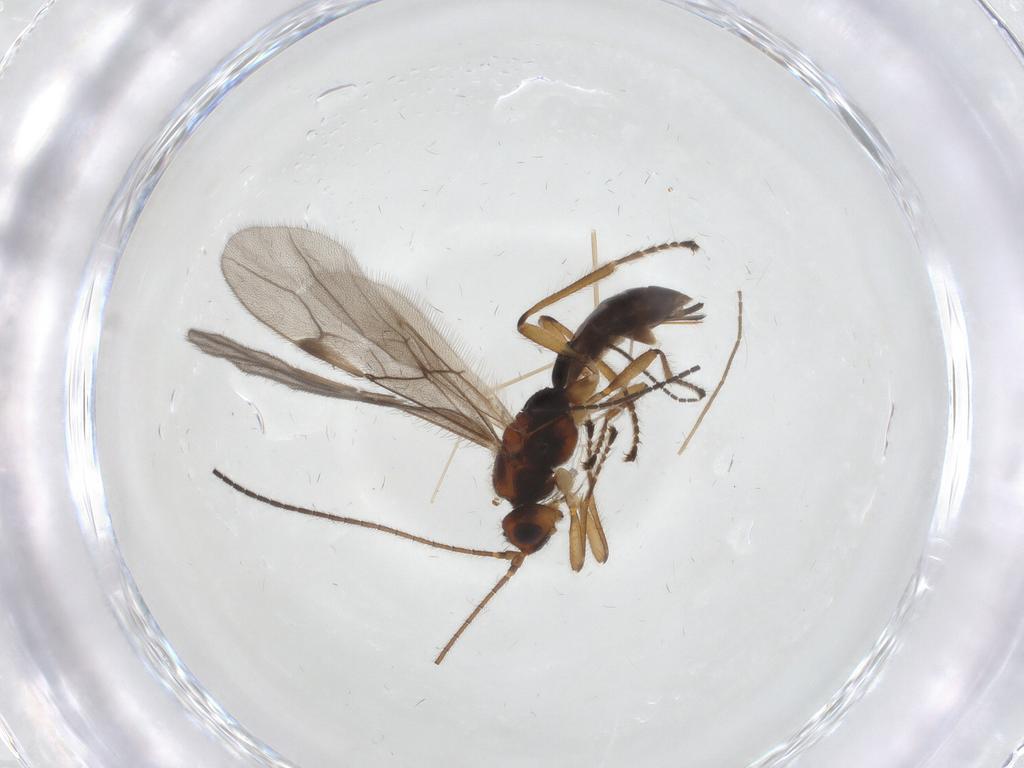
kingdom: Animalia
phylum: Arthropoda
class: Insecta
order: Hymenoptera
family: Braconidae
